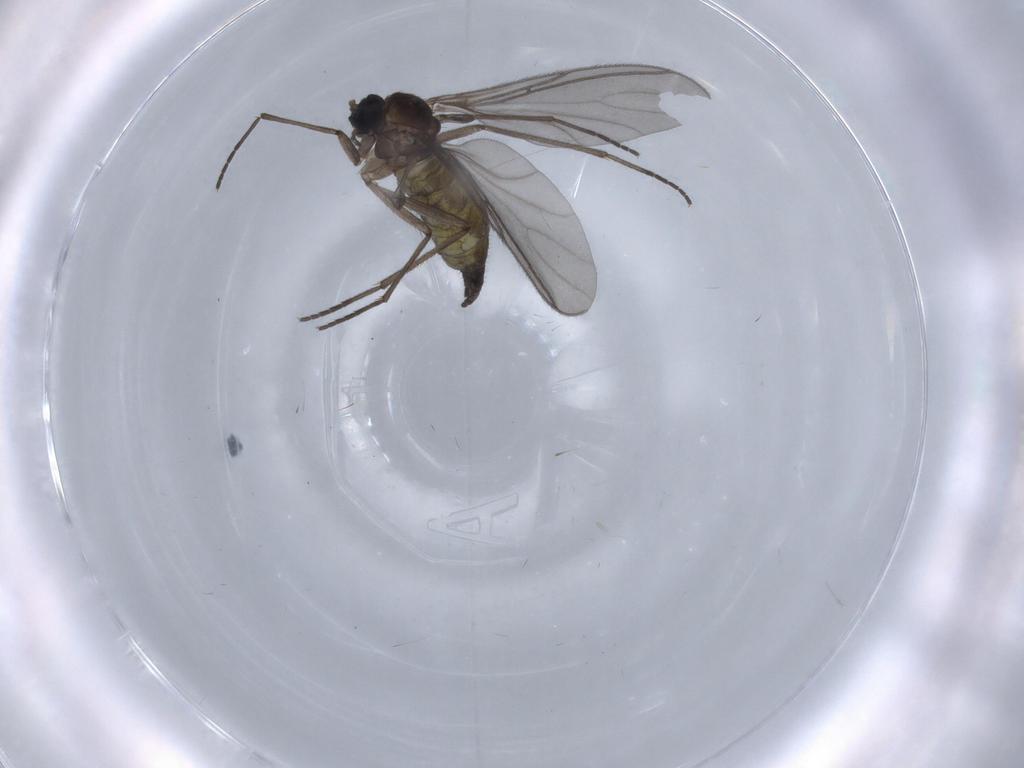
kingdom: Animalia
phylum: Arthropoda
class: Insecta
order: Diptera
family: Sciaridae
